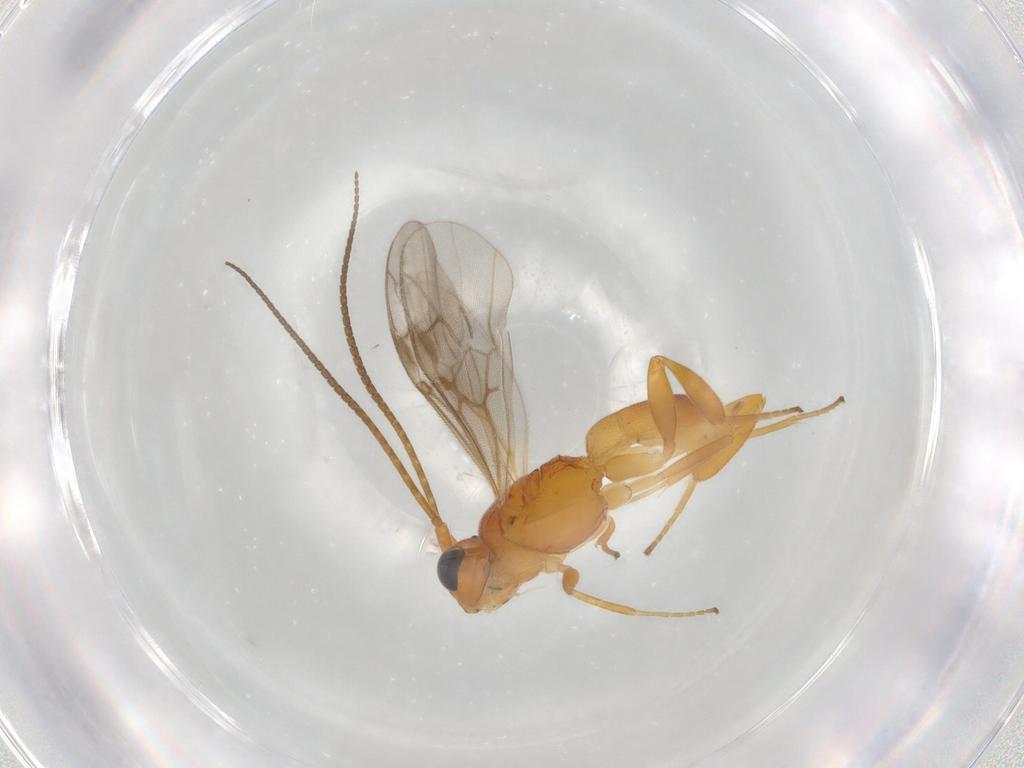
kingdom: Animalia
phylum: Arthropoda
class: Insecta
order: Hymenoptera
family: Braconidae
